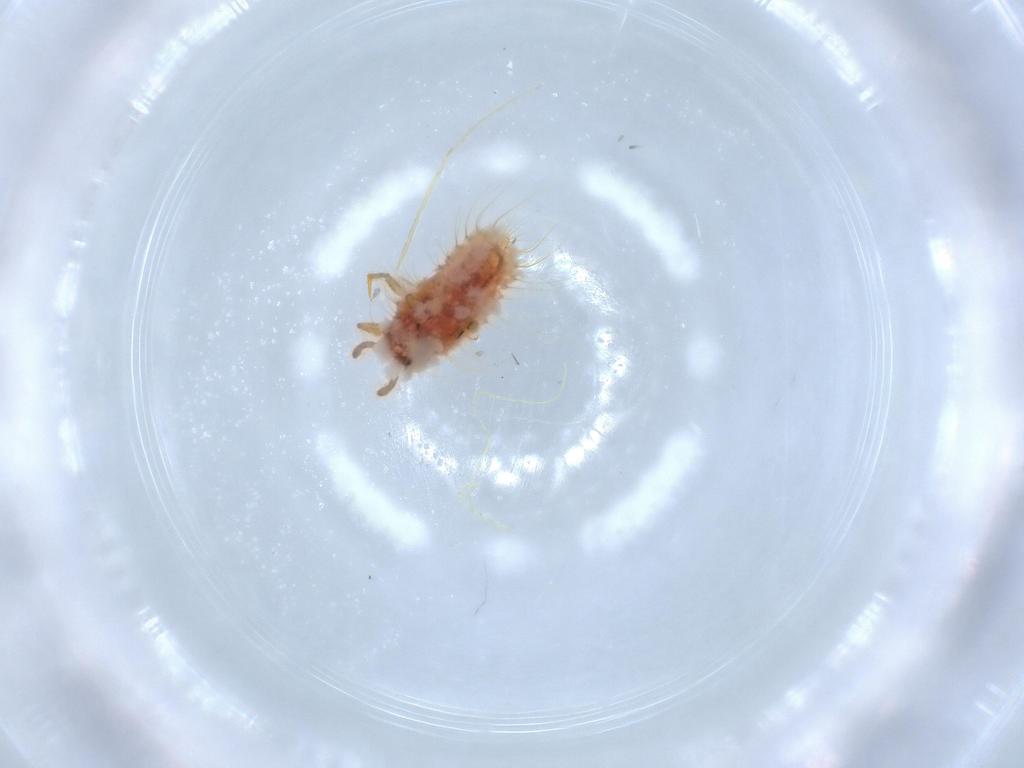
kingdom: Animalia
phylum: Arthropoda
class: Insecta
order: Hemiptera
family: Coccoidea_incertae_sedis
